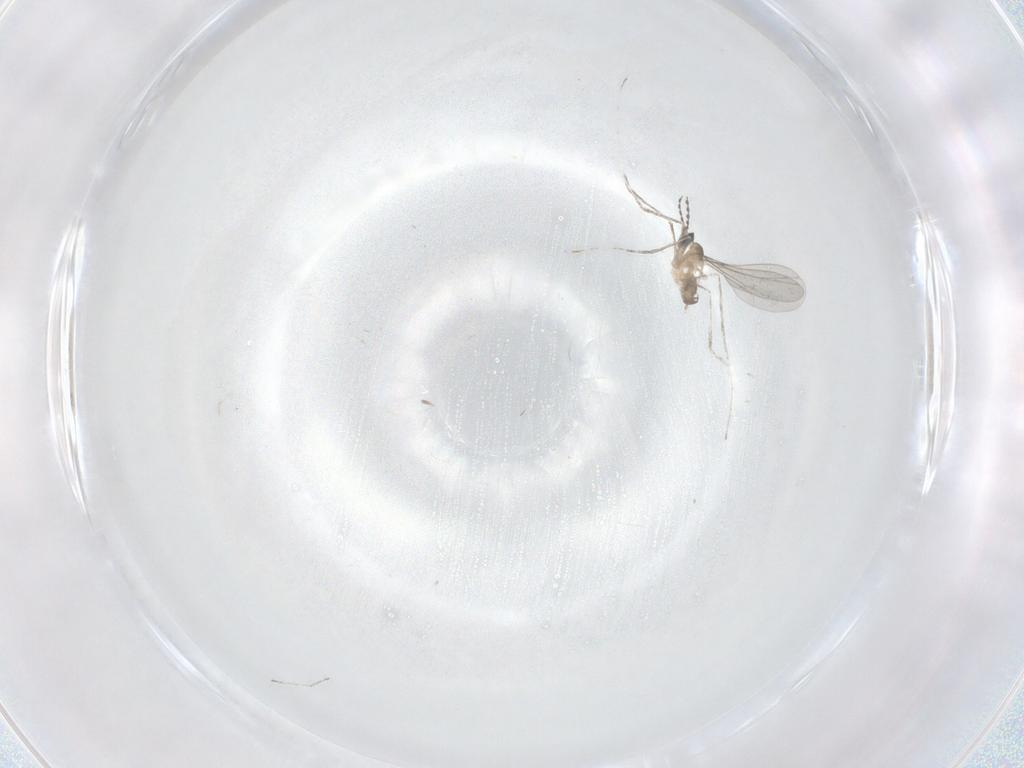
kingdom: Animalia
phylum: Arthropoda
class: Insecta
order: Diptera
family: Cecidomyiidae
